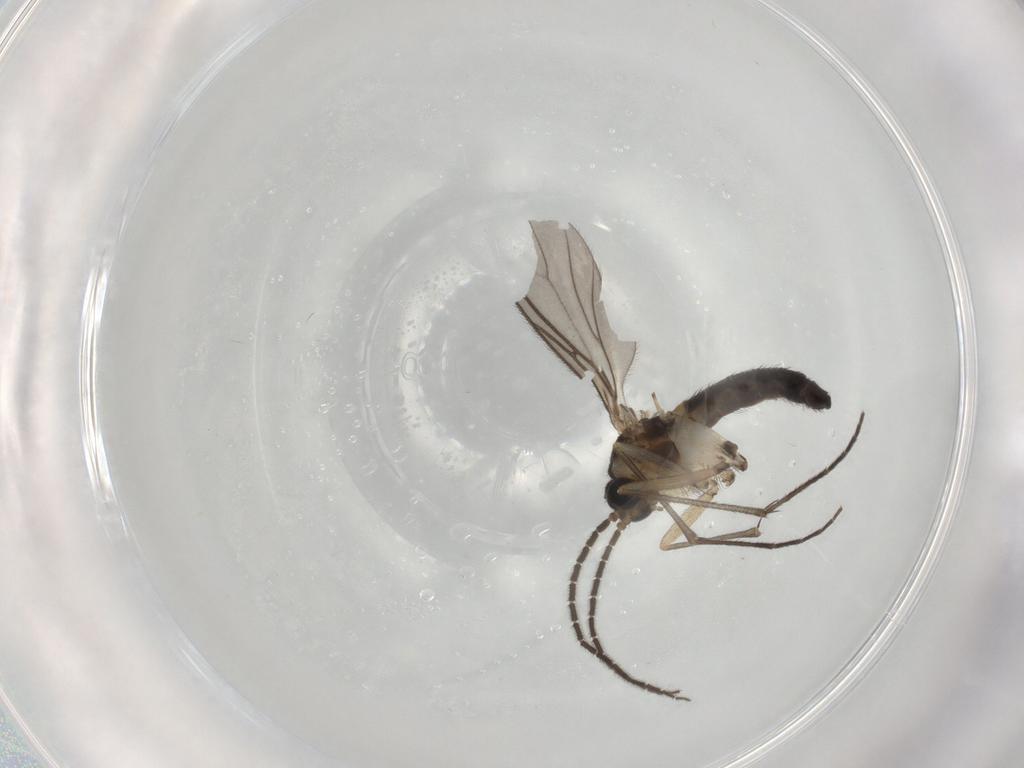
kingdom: Animalia
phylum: Arthropoda
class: Insecta
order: Diptera
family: Sciaridae
